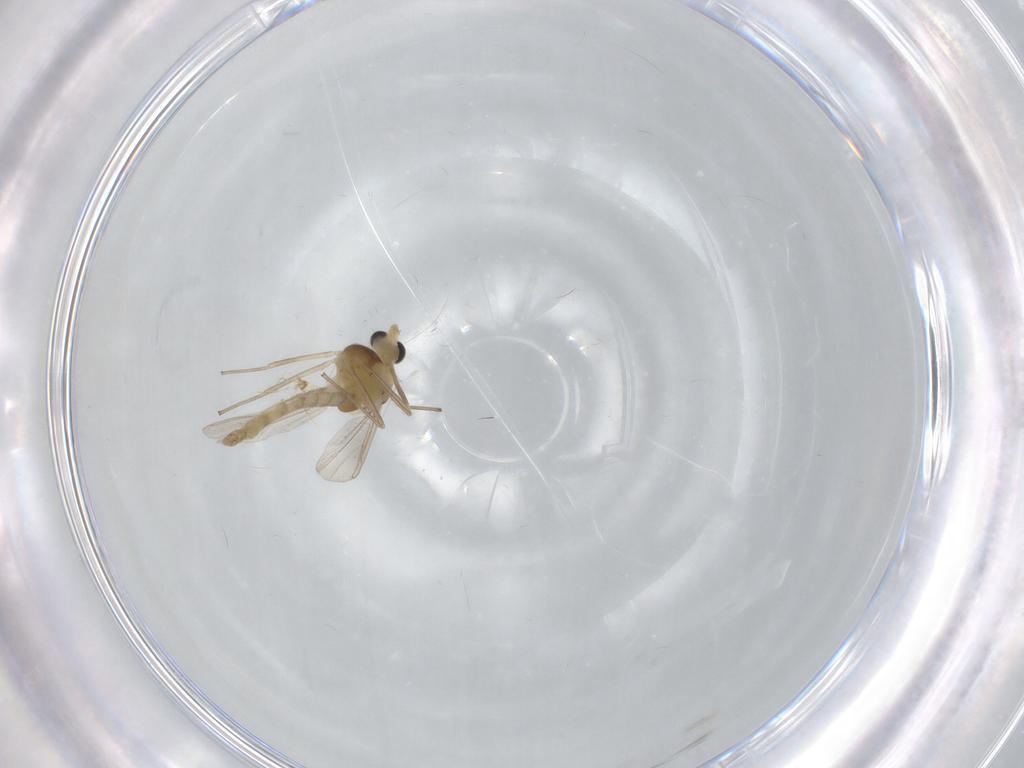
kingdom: Animalia
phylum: Arthropoda
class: Insecta
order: Diptera
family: Chironomidae
